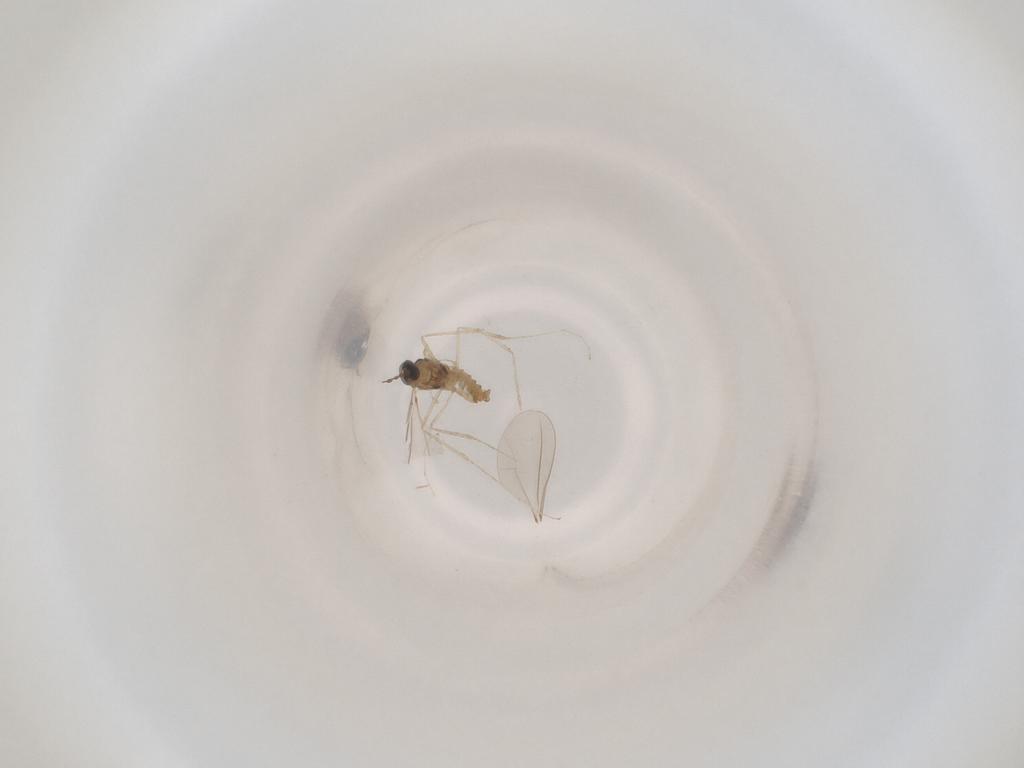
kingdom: Animalia
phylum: Arthropoda
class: Insecta
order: Diptera
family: Cecidomyiidae
